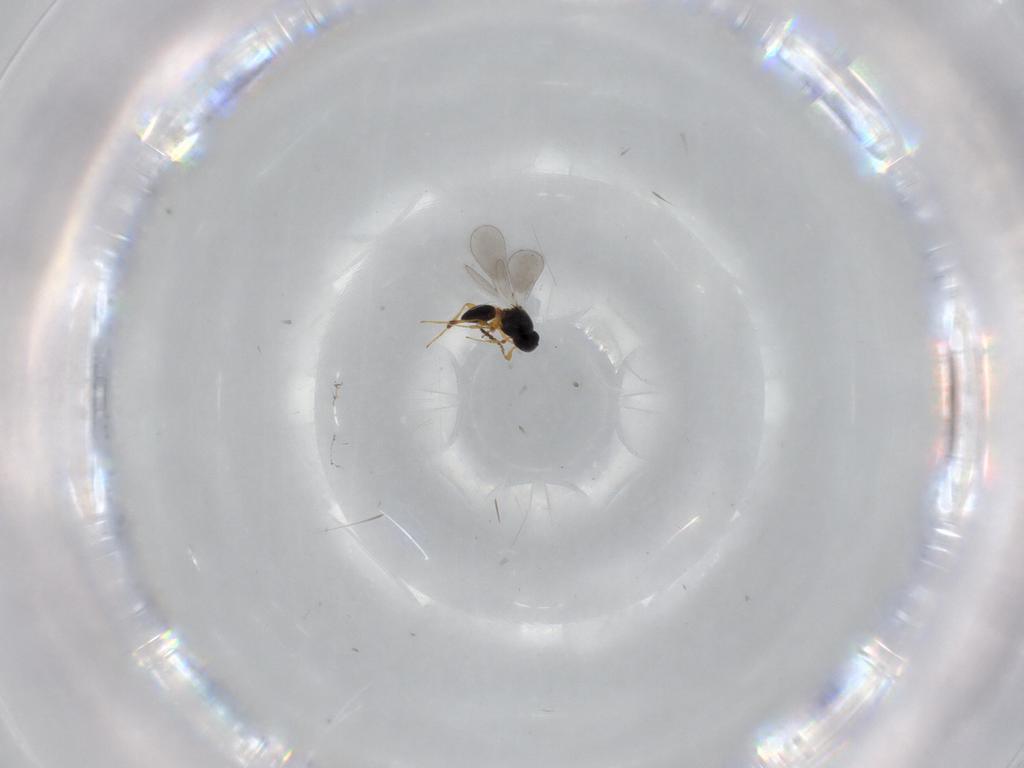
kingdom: Animalia
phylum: Arthropoda
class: Insecta
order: Hymenoptera
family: Platygastridae
